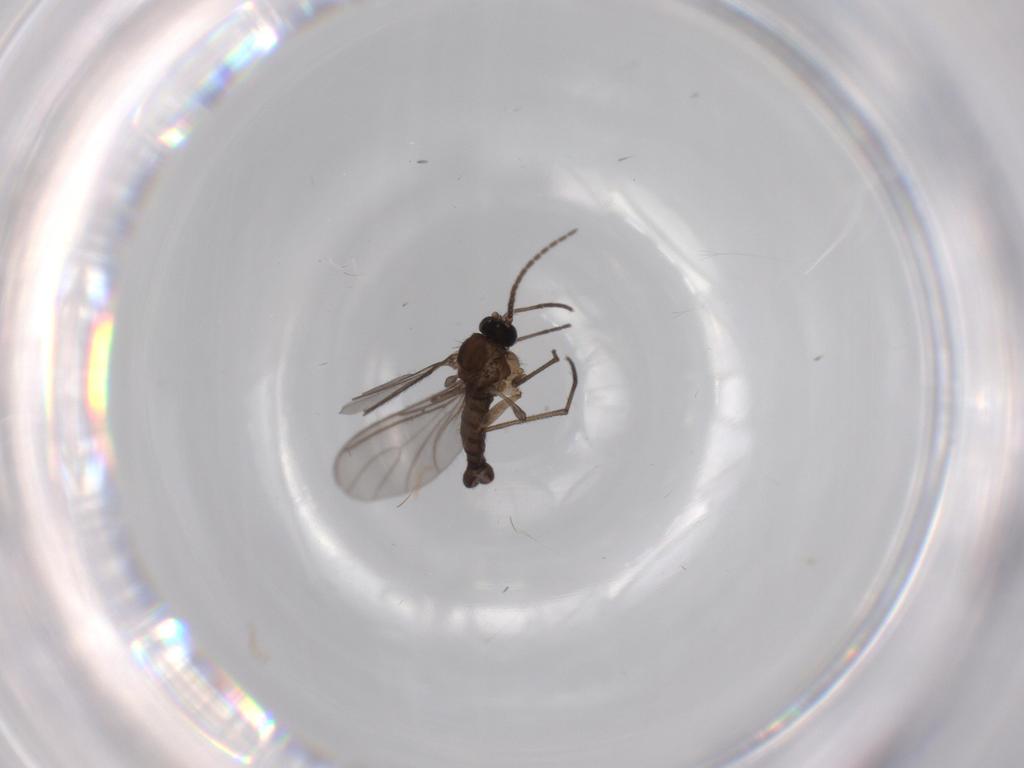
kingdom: Animalia
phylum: Arthropoda
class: Insecta
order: Diptera
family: Sciaridae
